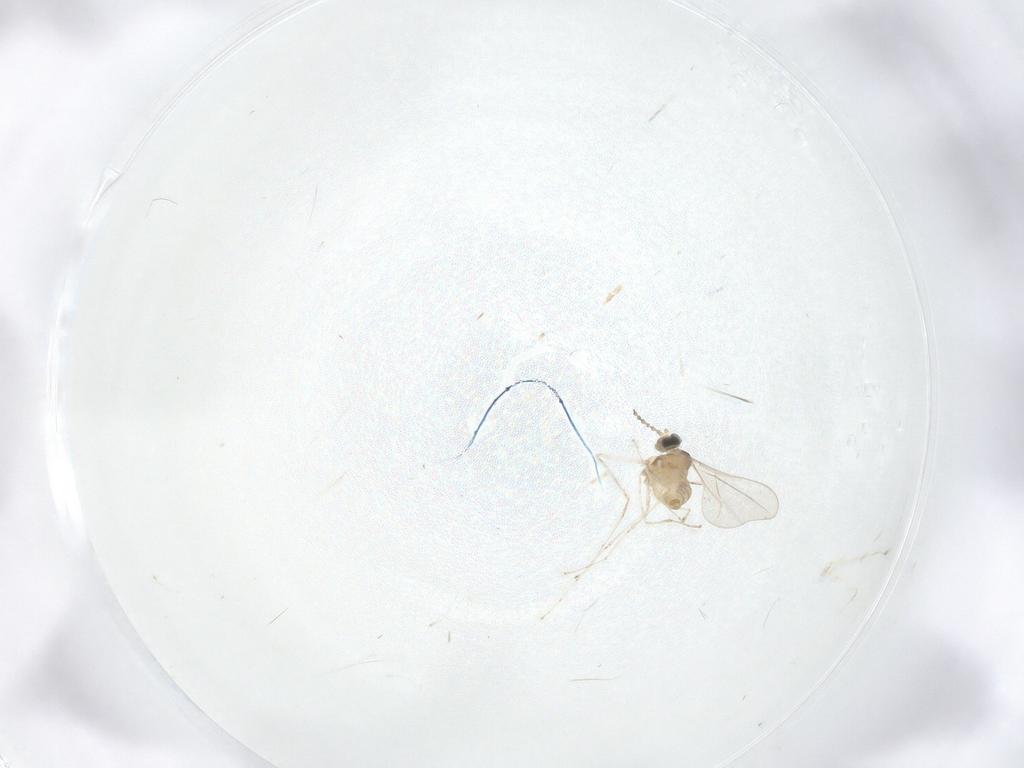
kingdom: Animalia
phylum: Arthropoda
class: Insecta
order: Diptera
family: Cecidomyiidae
